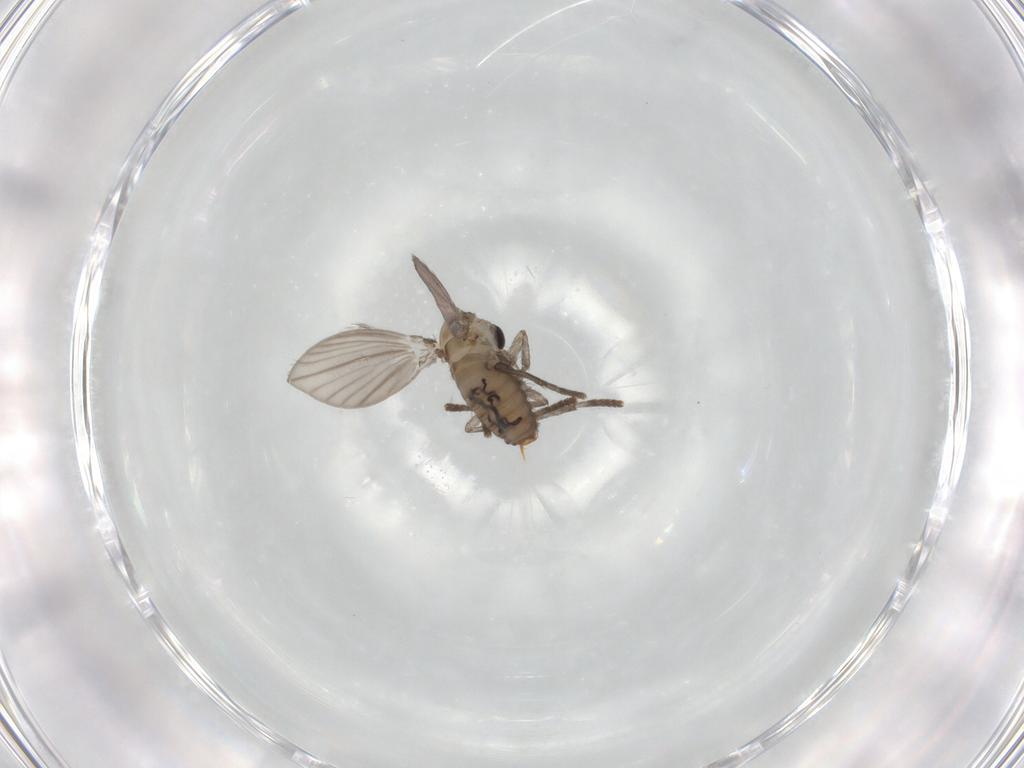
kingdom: Animalia
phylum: Arthropoda
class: Insecta
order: Diptera
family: Psychodidae
